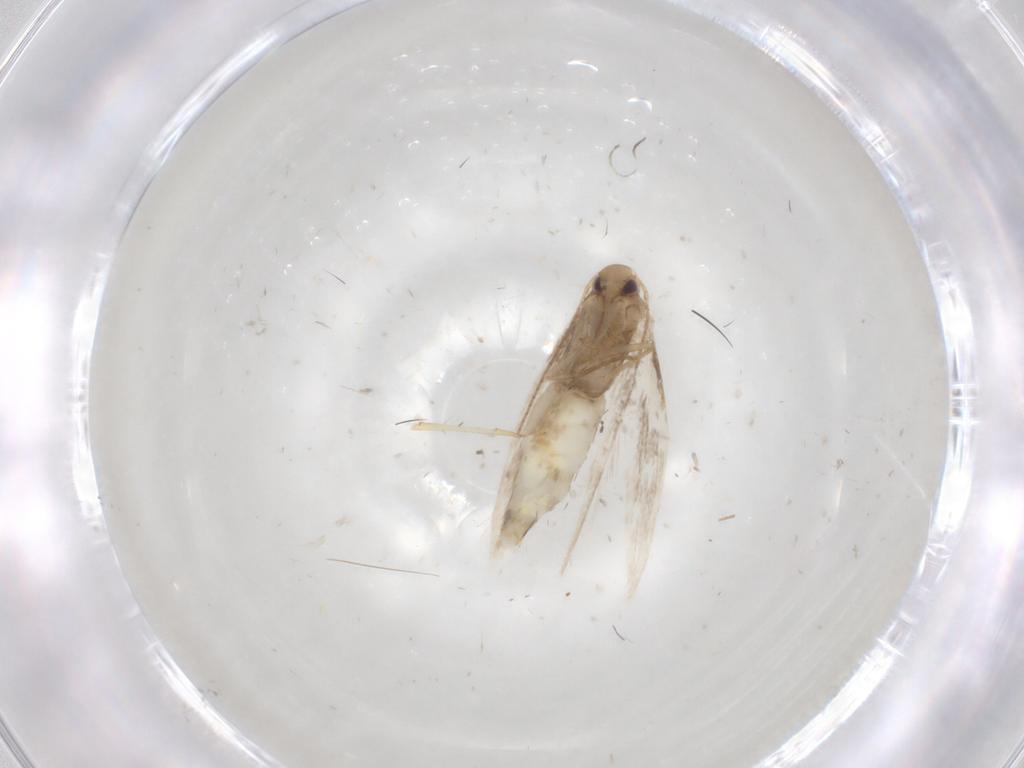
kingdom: Animalia
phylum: Arthropoda
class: Insecta
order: Lepidoptera
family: Gracillariidae
